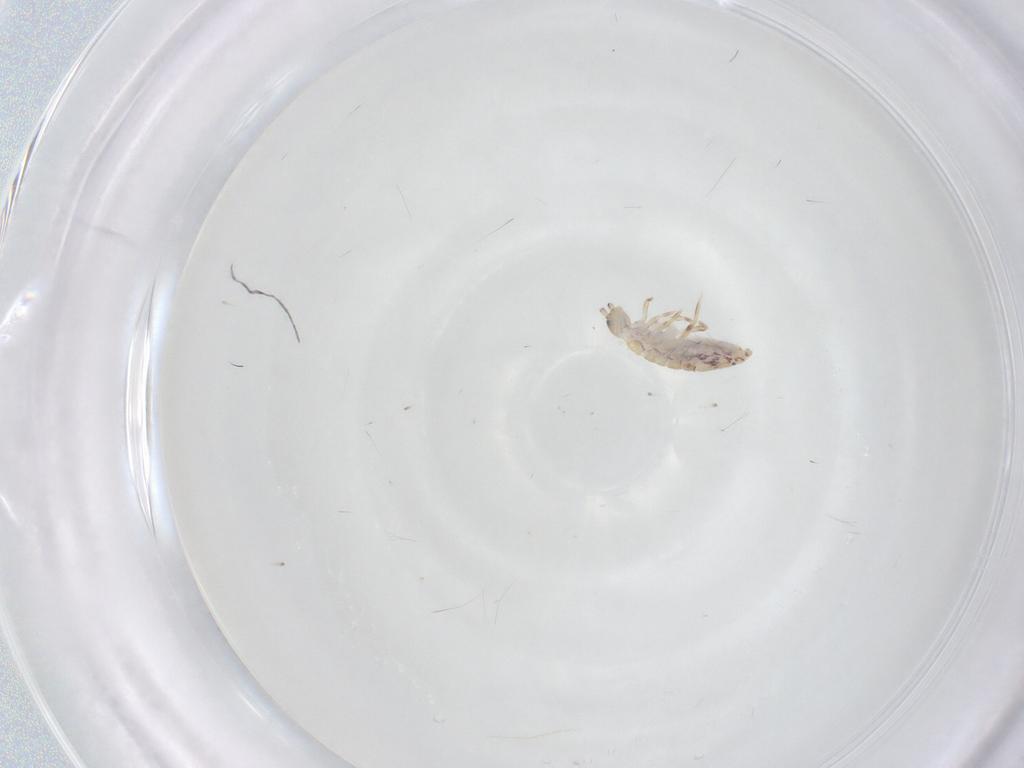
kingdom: Animalia
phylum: Arthropoda
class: Collembola
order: Entomobryomorpha
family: Entomobryidae
